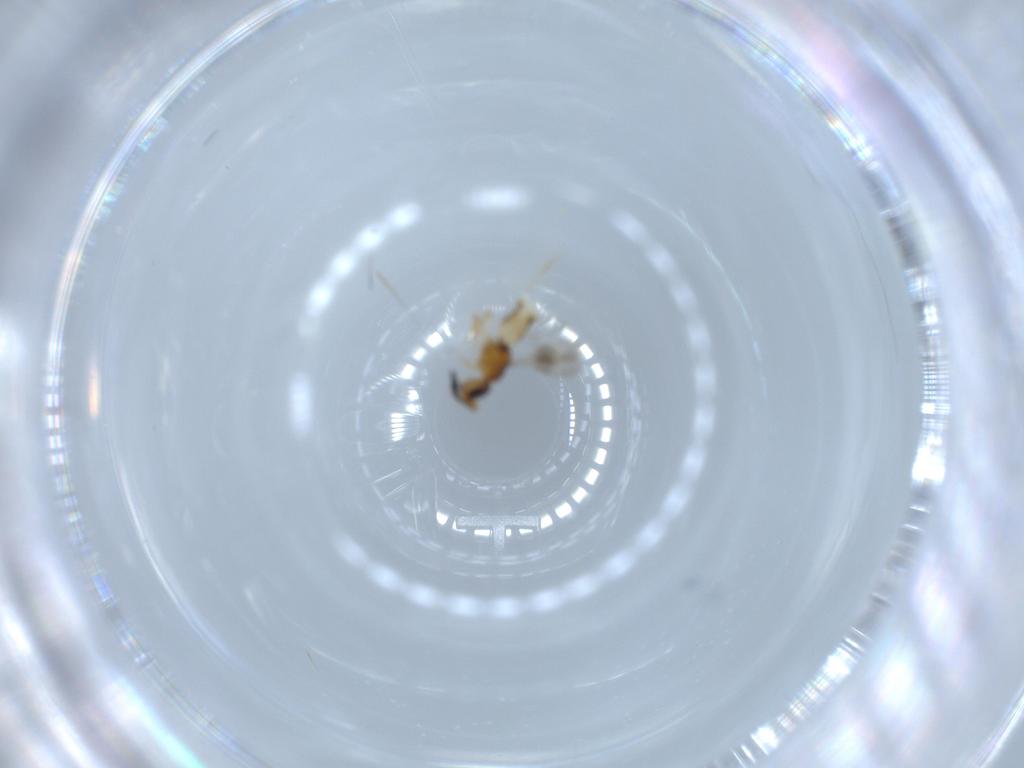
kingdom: Animalia
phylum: Arthropoda
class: Insecta
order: Hymenoptera
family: Ceraphronidae
